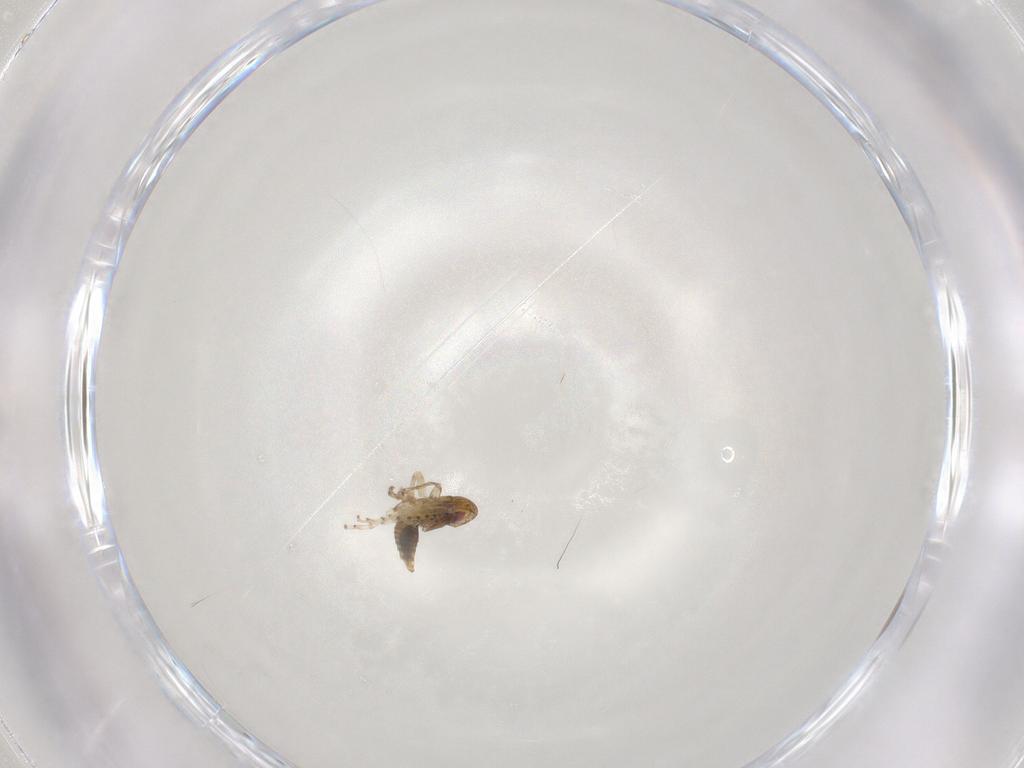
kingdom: Animalia
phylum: Arthropoda
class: Insecta
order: Hemiptera
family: Cicadellidae
